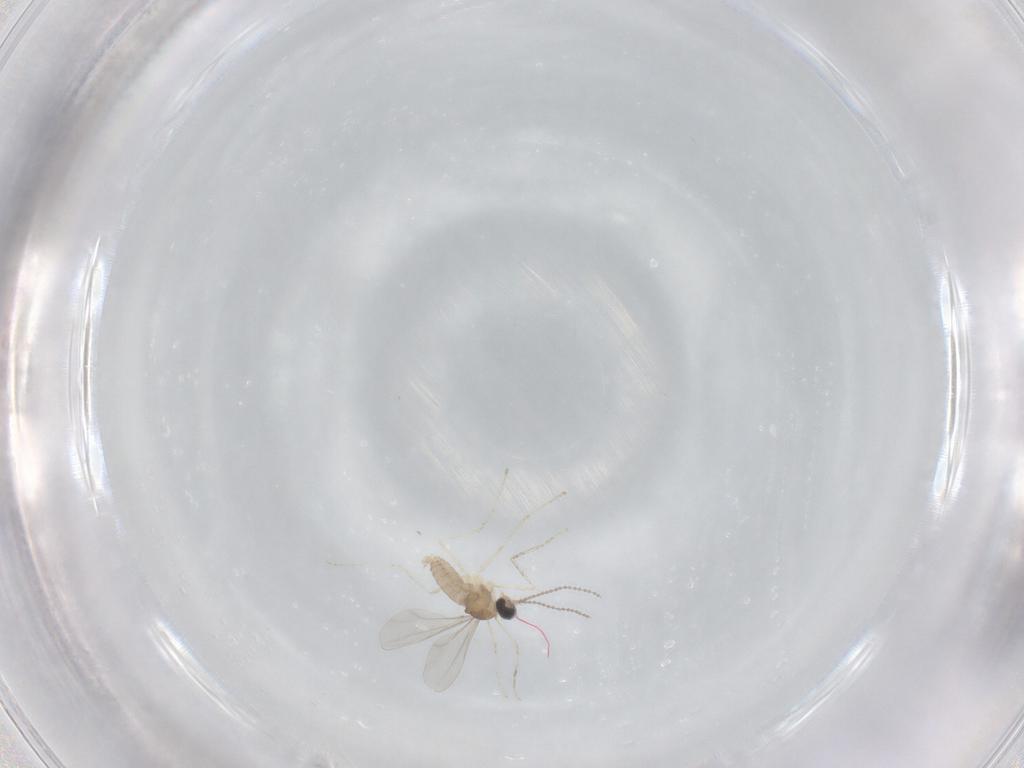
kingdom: Animalia
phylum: Arthropoda
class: Insecta
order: Diptera
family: Cecidomyiidae
